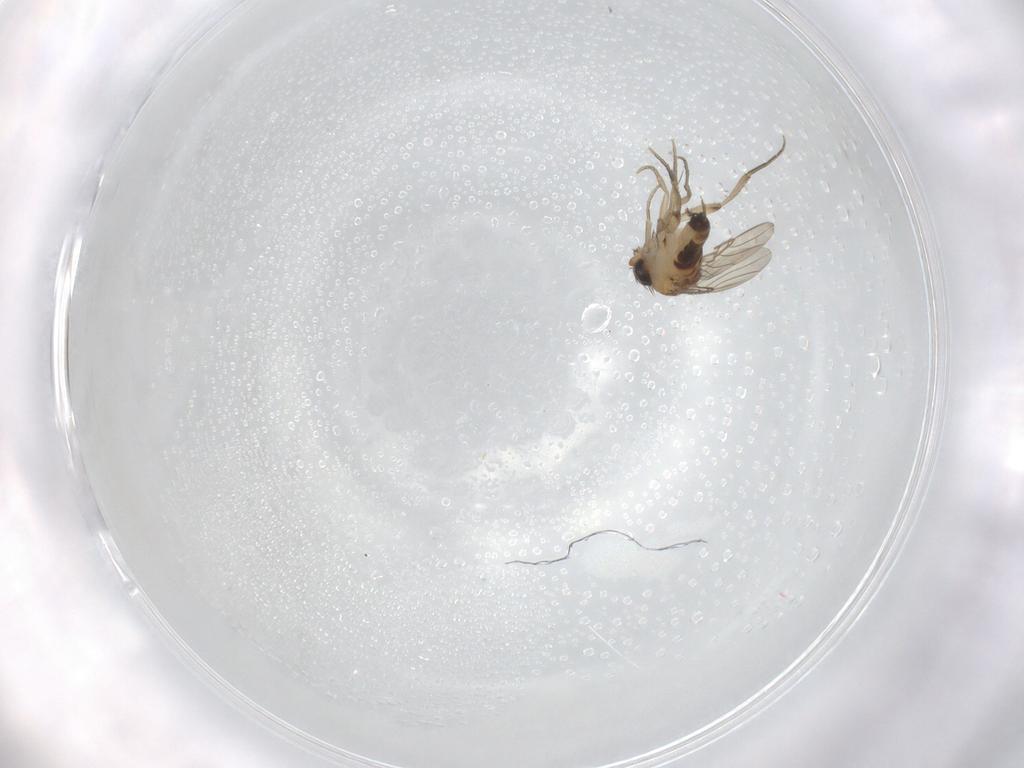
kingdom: Animalia
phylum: Arthropoda
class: Insecta
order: Diptera
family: Phoridae
